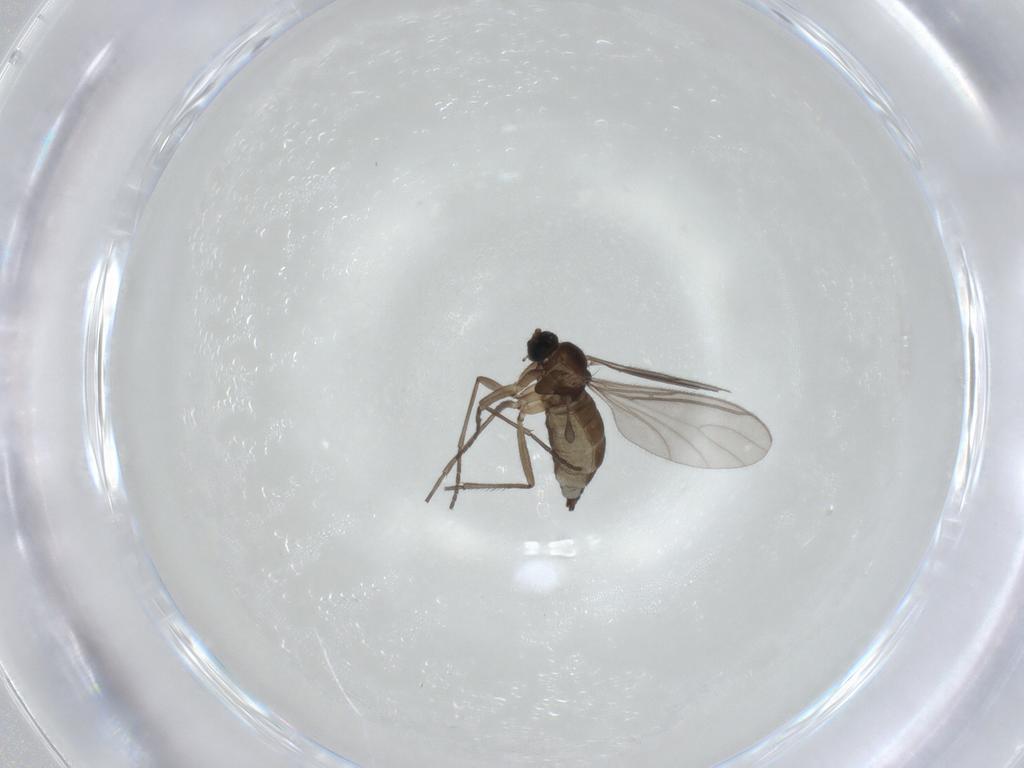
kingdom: Animalia
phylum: Arthropoda
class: Insecta
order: Diptera
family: Sciaridae
